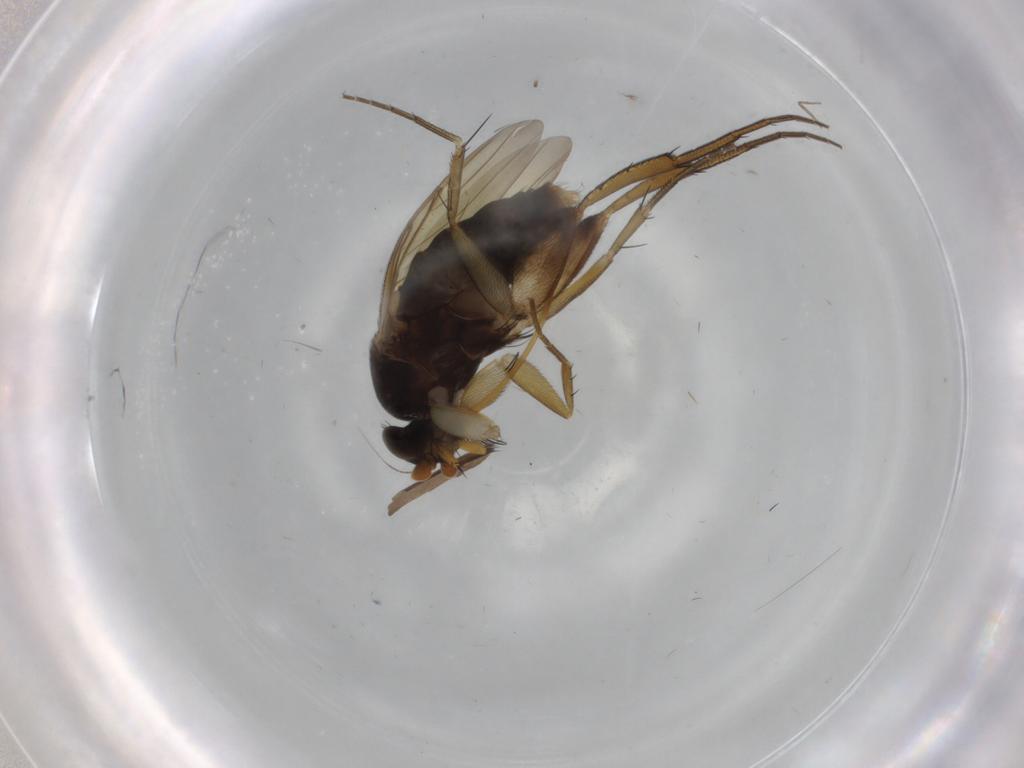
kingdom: Animalia
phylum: Arthropoda
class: Insecta
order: Diptera
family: Phoridae
